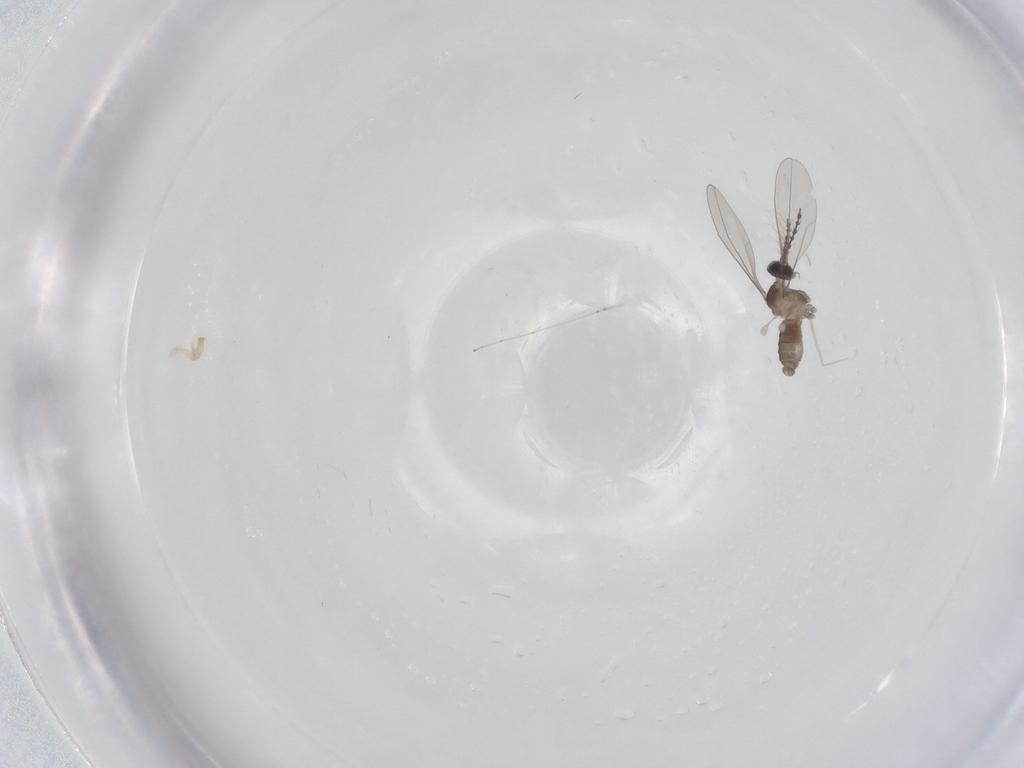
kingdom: Animalia
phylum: Arthropoda
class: Insecta
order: Diptera
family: Cecidomyiidae
